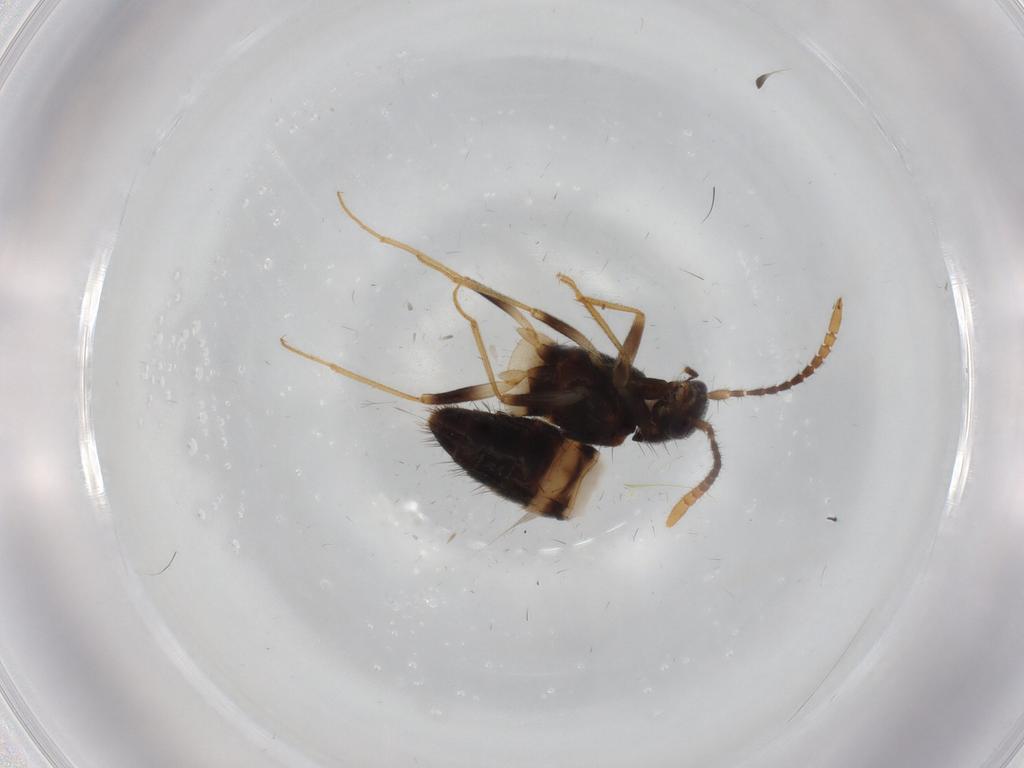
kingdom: Animalia
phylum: Arthropoda
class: Insecta
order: Coleoptera
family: Staphylinidae
